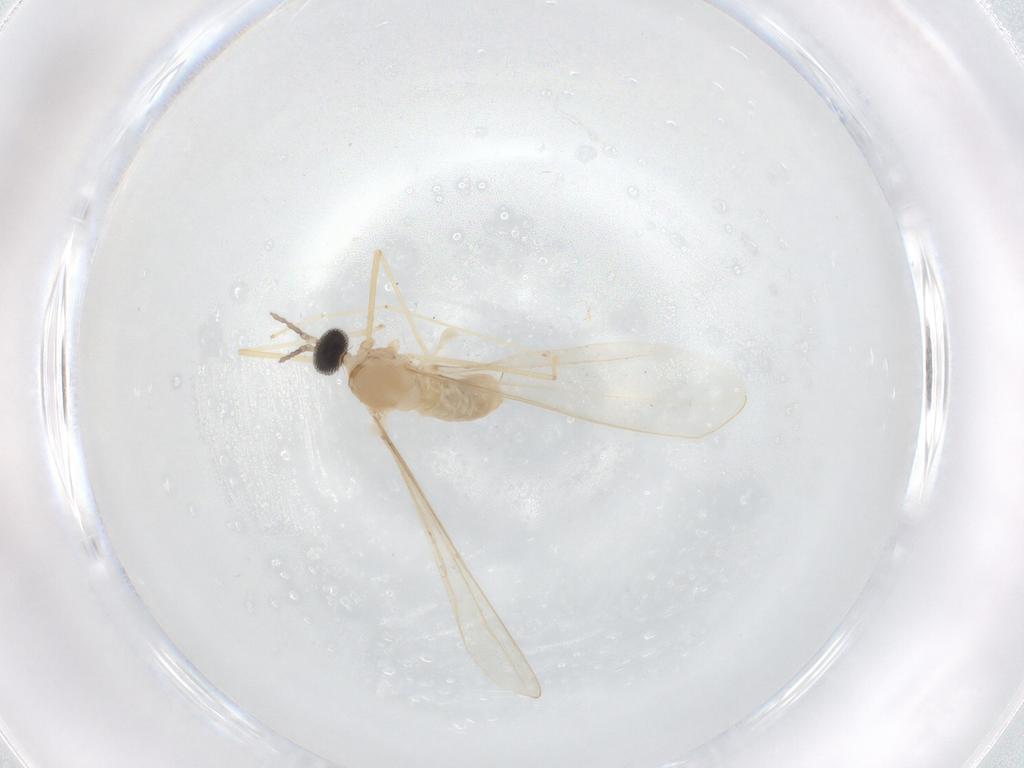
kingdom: Animalia
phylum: Arthropoda
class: Insecta
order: Diptera
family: Cecidomyiidae
